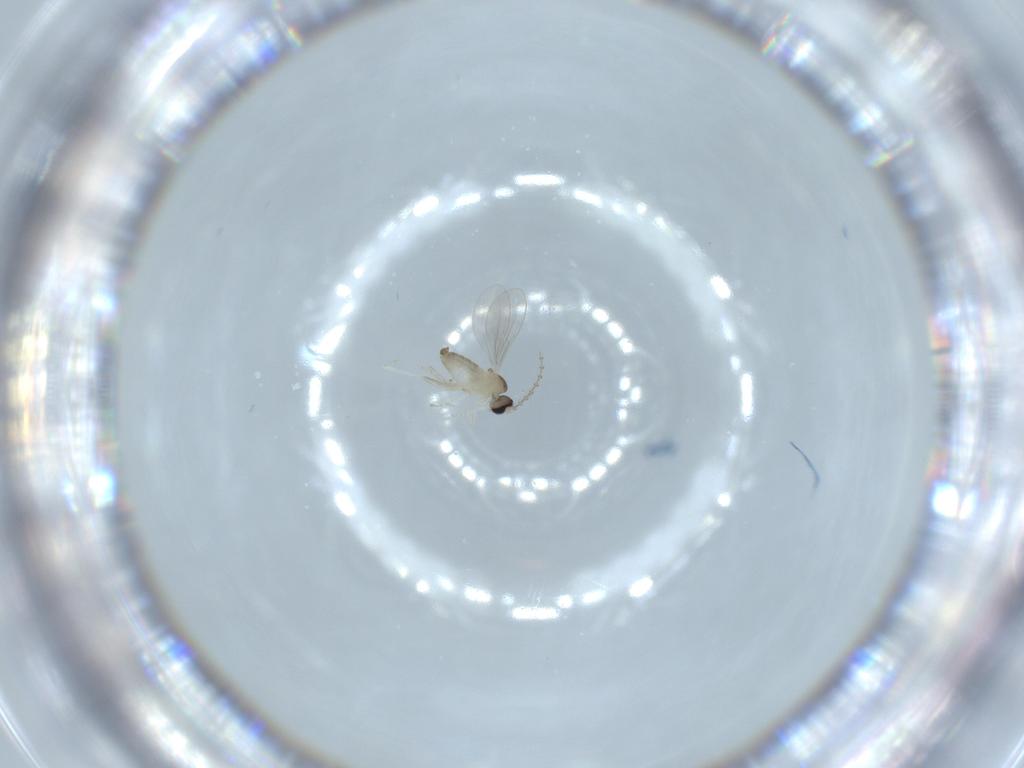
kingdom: Animalia
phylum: Arthropoda
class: Insecta
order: Diptera
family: Cecidomyiidae
